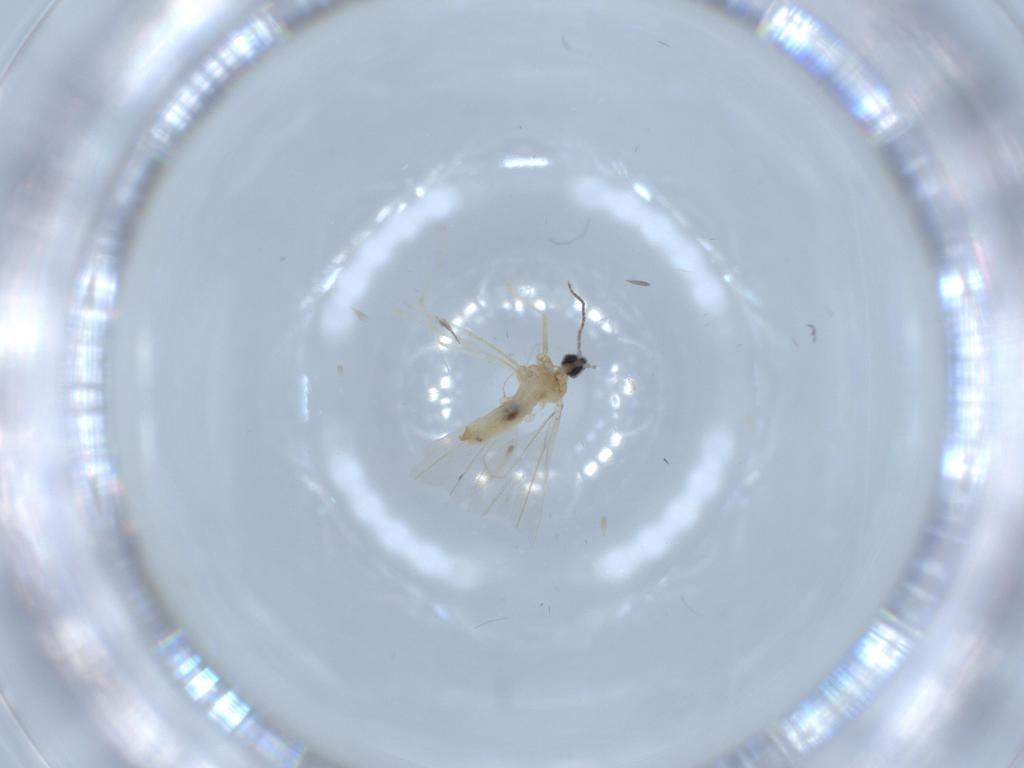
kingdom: Animalia
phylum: Arthropoda
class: Insecta
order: Diptera
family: Cecidomyiidae
